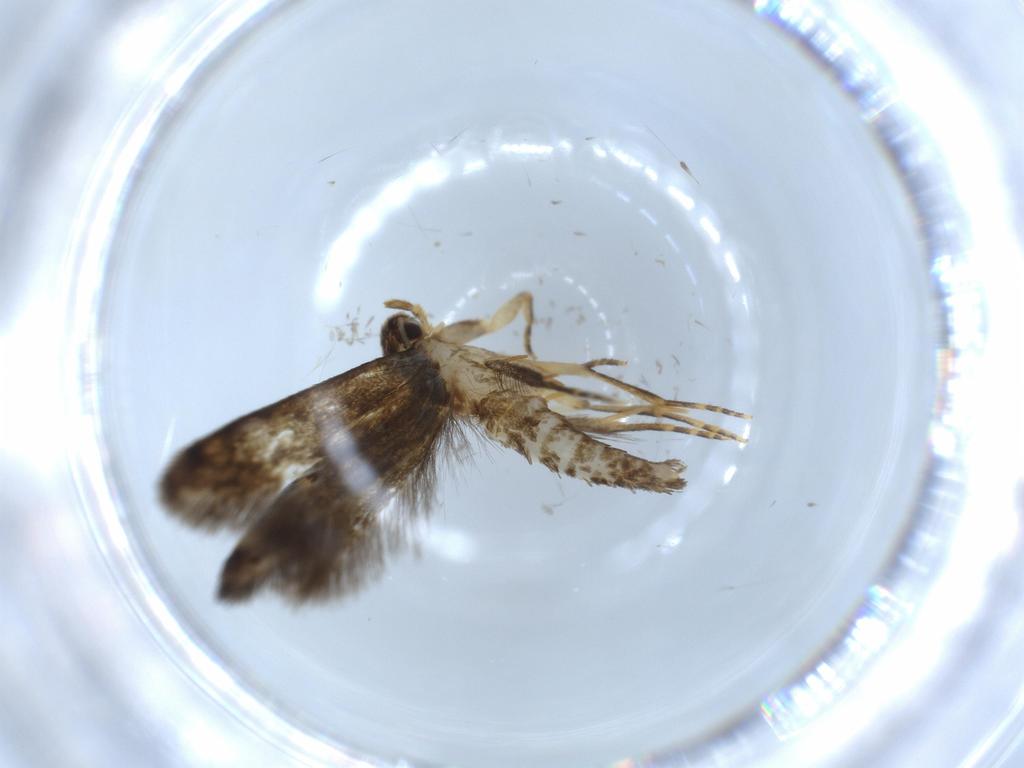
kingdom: Animalia
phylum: Arthropoda
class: Insecta
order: Lepidoptera
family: Tineidae
